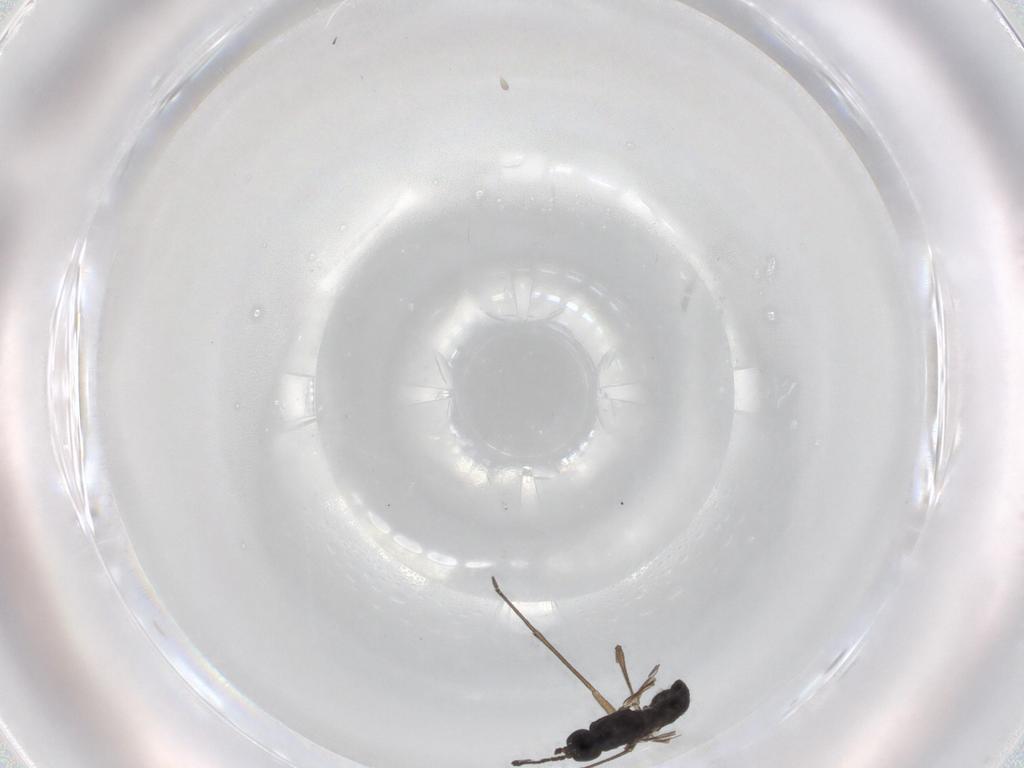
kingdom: Animalia
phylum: Arthropoda
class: Insecta
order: Diptera
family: Sciaridae
